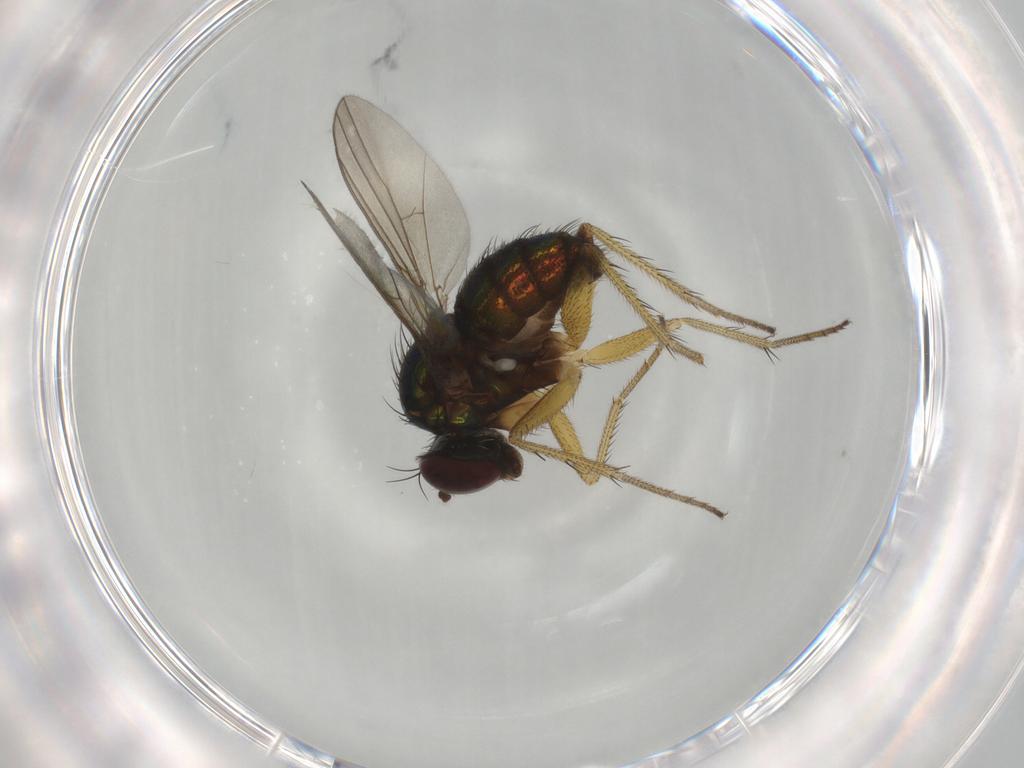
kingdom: Animalia
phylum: Arthropoda
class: Insecta
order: Diptera
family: Dolichopodidae
